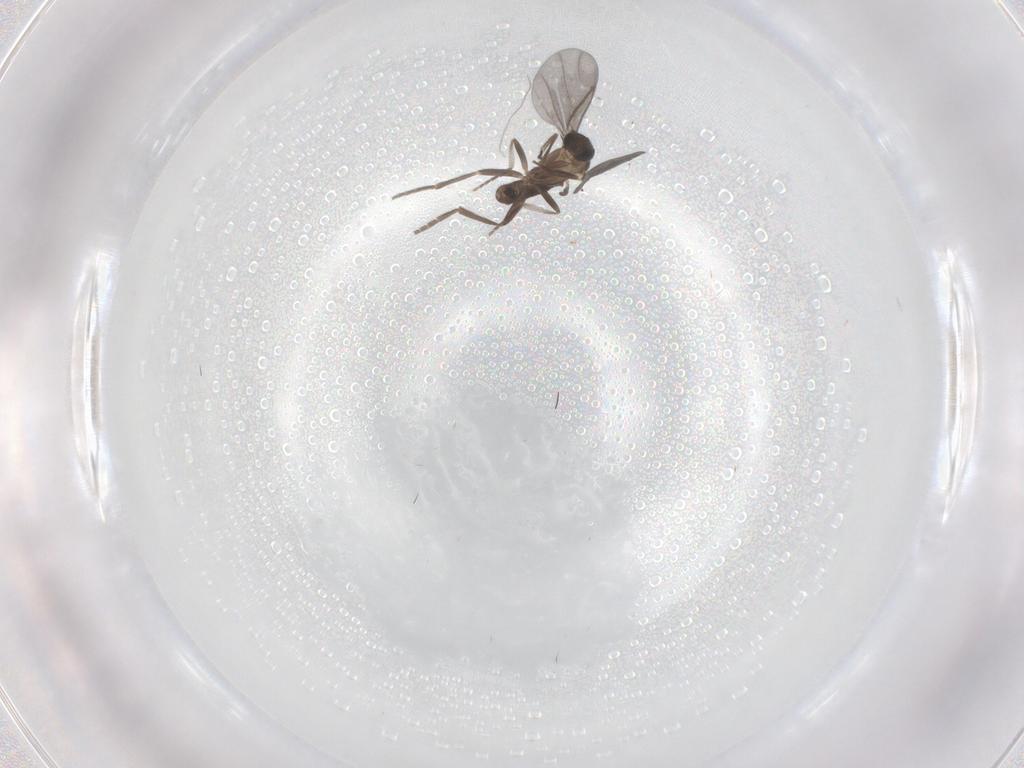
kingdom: Animalia
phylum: Arthropoda
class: Insecta
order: Diptera
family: Phoridae
